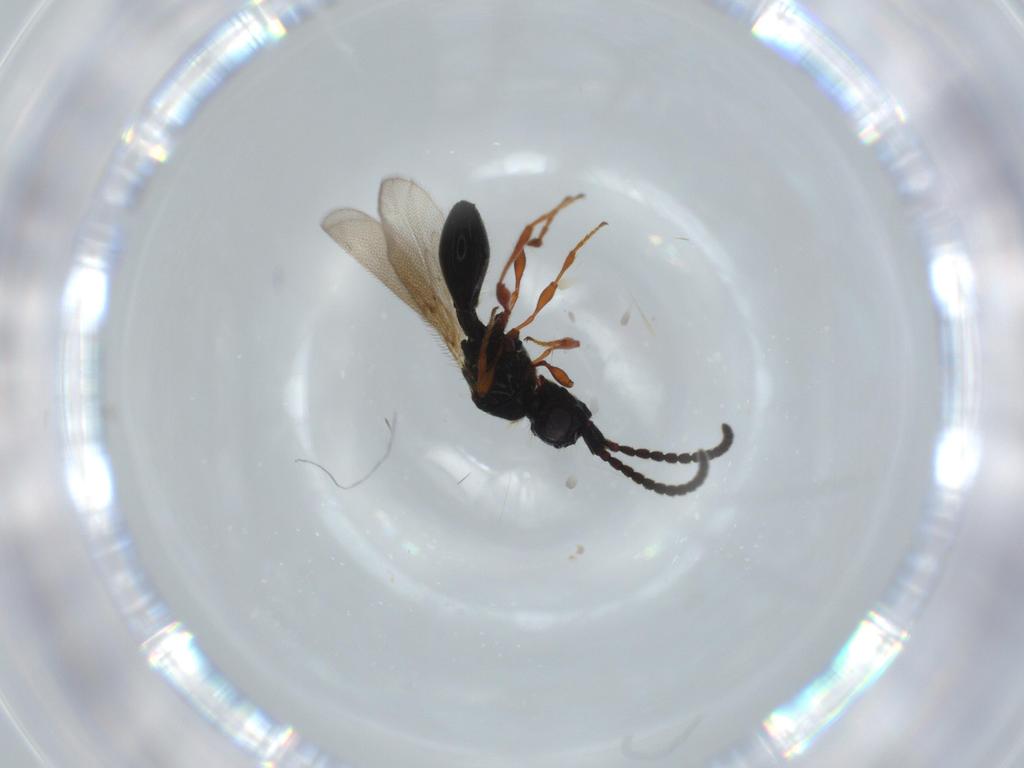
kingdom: Animalia
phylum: Arthropoda
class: Insecta
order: Hymenoptera
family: Diapriidae
